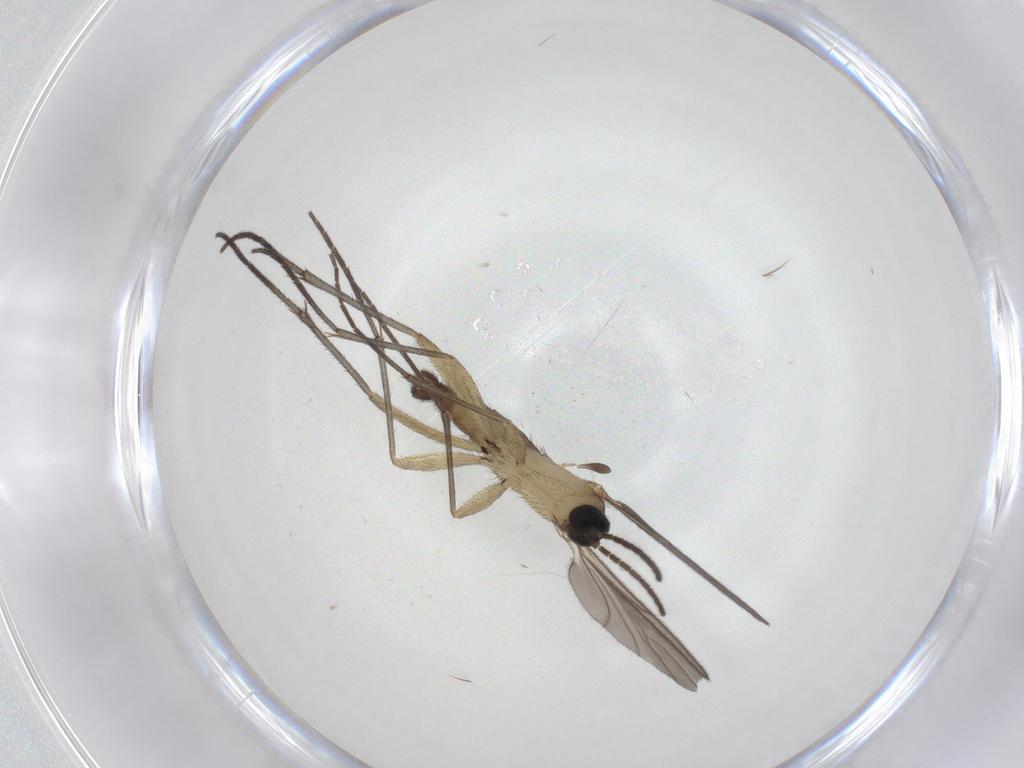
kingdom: Animalia
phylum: Arthropoda
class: Insecta
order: Diptera
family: Sciaridae
